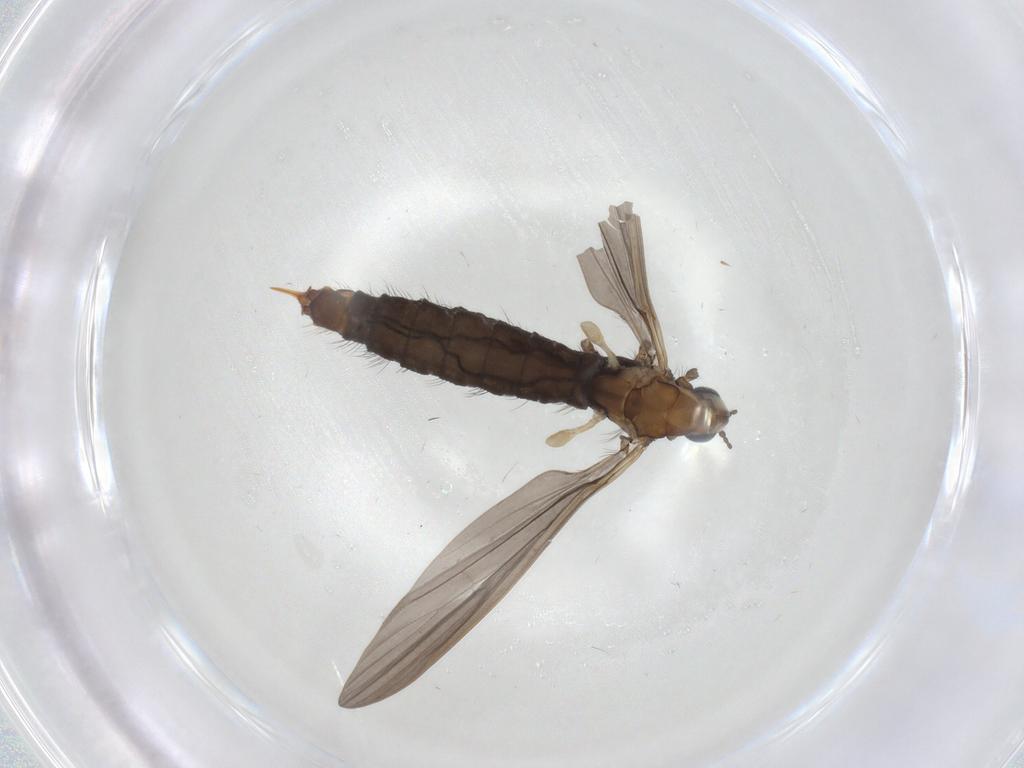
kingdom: Animalia
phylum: Arthropoda
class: Insecta
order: Diptera
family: Limoniidae
